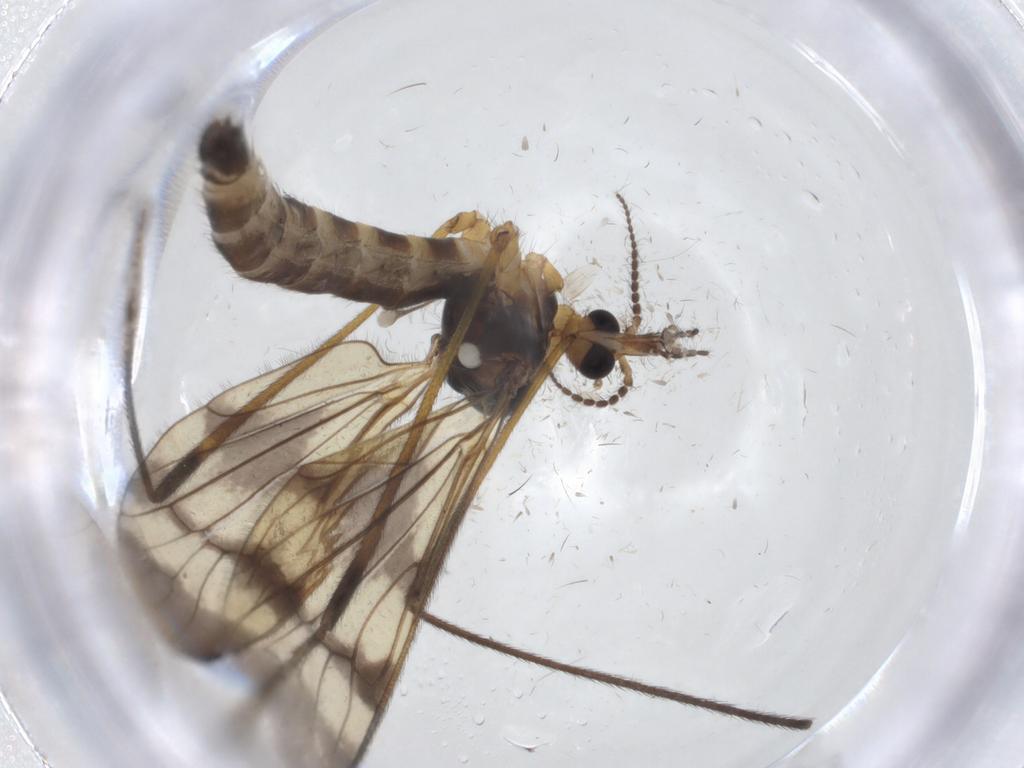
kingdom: Animalia
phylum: Arthropoda
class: Insecta
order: Diptera
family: Limoniidae
